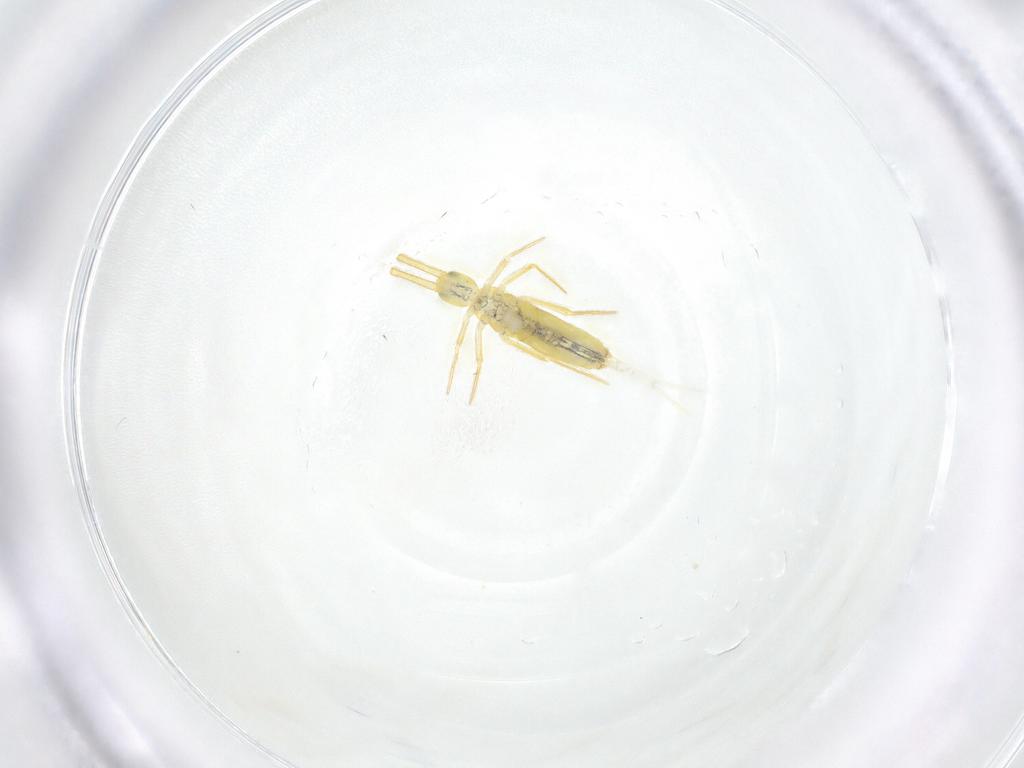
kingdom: Animalia
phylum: Arthropoda
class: Collembola
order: Entomobryomorpha
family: Paronellidae
